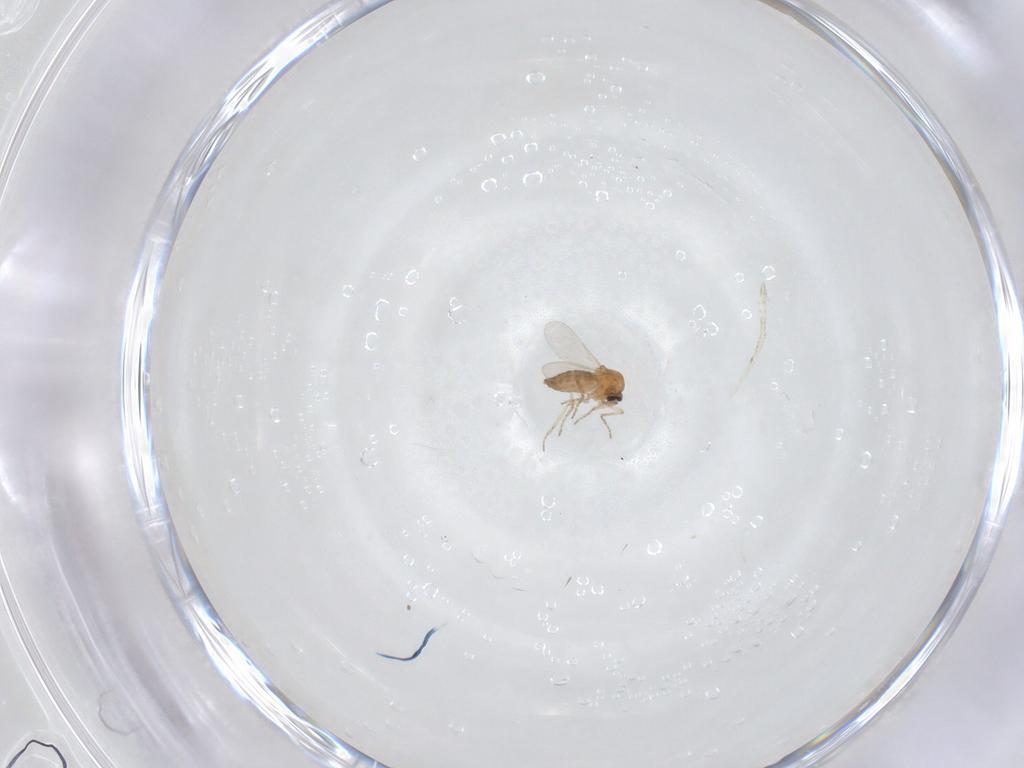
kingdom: Animalia
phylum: Arthropoda
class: Insecta
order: Diptera
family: Ceratopogonidae
